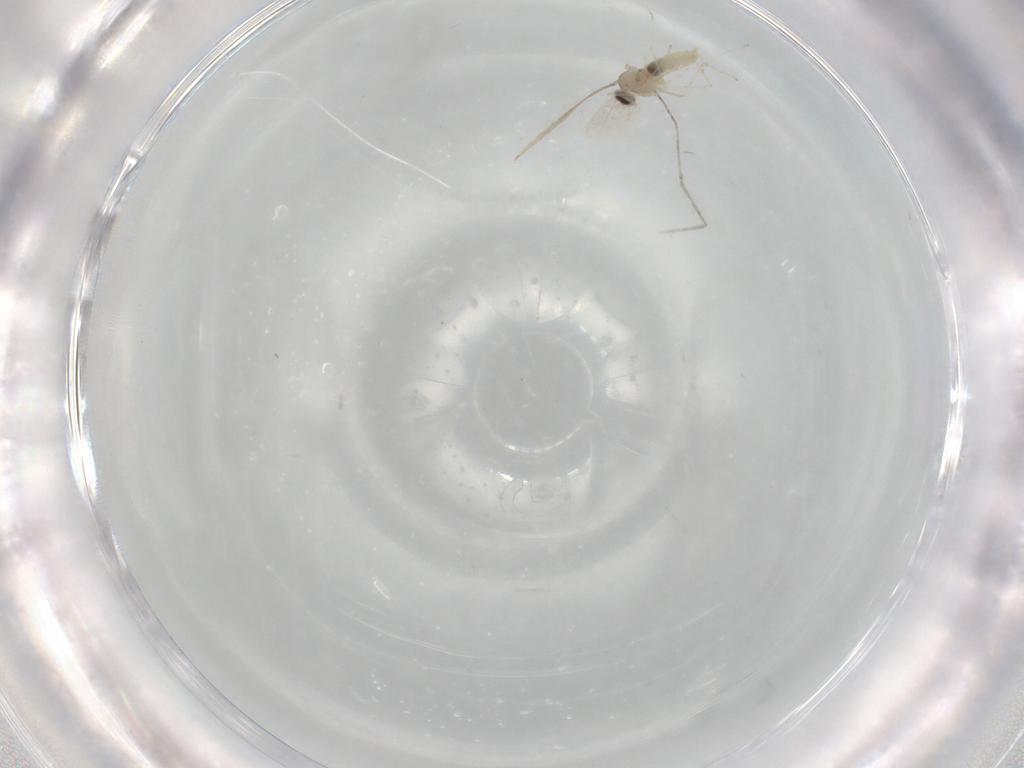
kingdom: Animalia
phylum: Arthropoda
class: Insecta
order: Diptera
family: Cecidomyiidae
